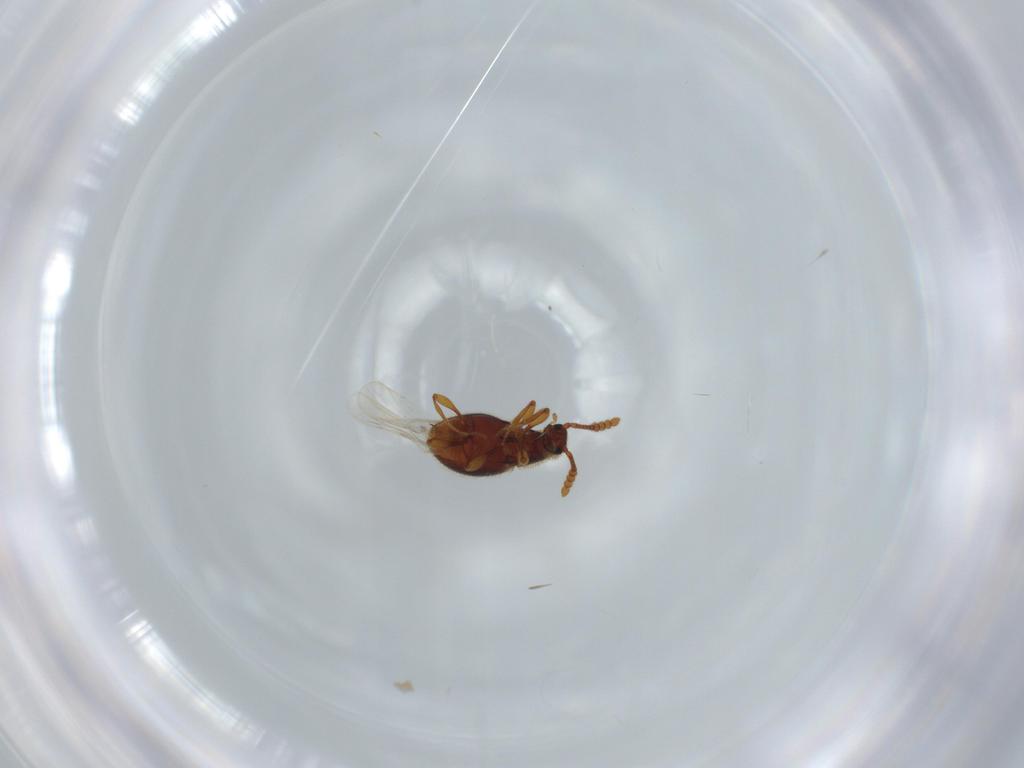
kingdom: Animalia
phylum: Arthropoda
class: Insecta
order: Coleoptera
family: Staphylinidae
